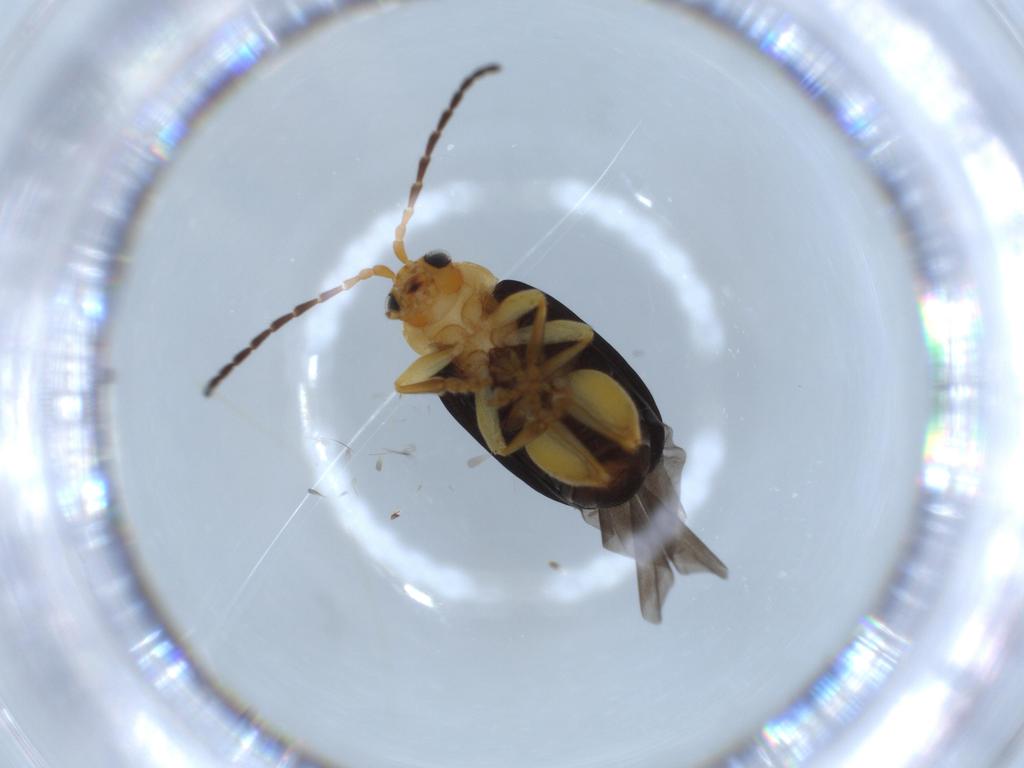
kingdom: Animalia
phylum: Arthropoda
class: Insecta
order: Coleoptera
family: Chrysomelidae
